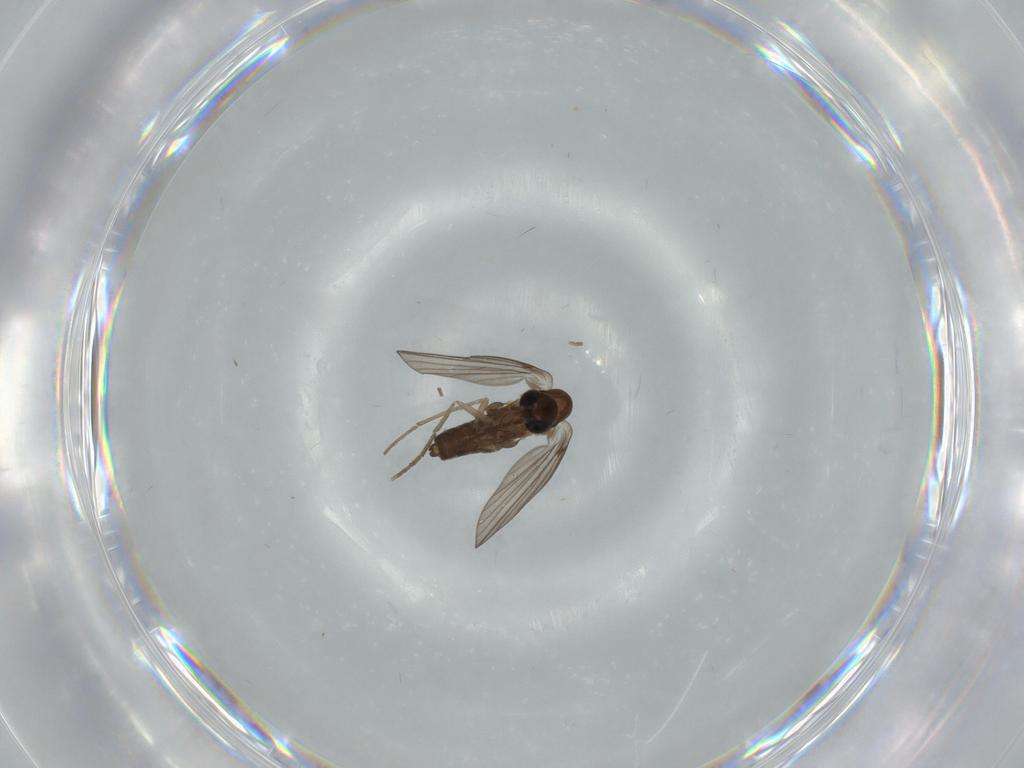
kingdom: Animalia
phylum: Arthropoda
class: Insecta
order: Diptera
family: Psychodidae
